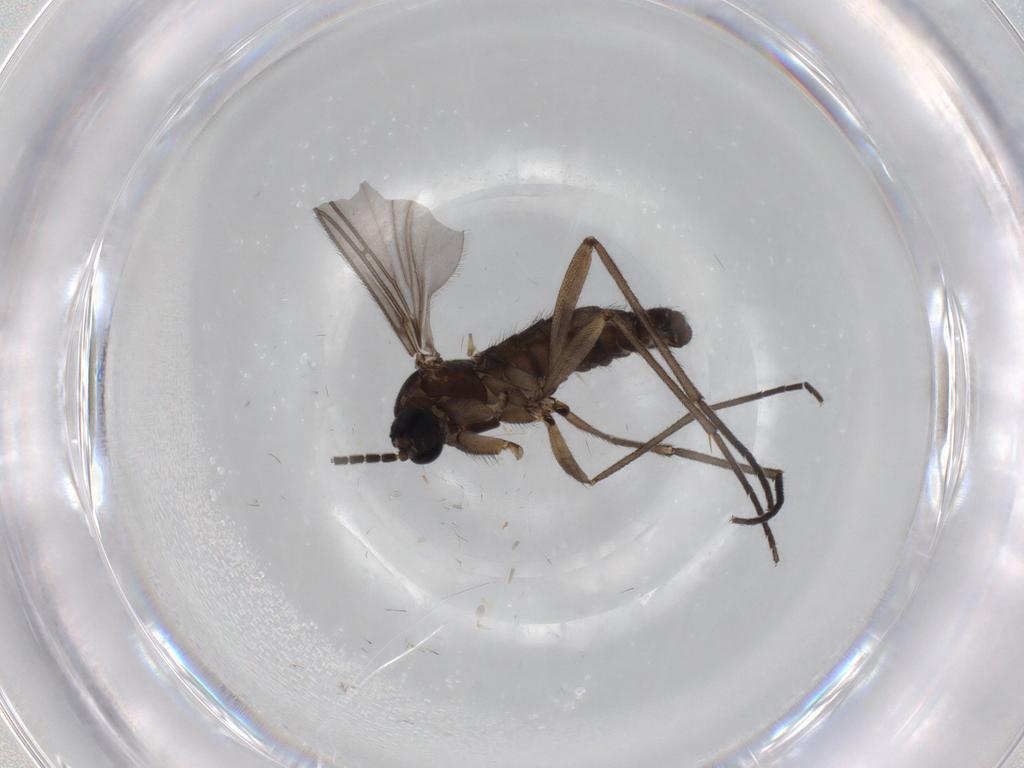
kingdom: Animalia
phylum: Arthropoda
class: Insecta
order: Diptera
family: Sciaridae
